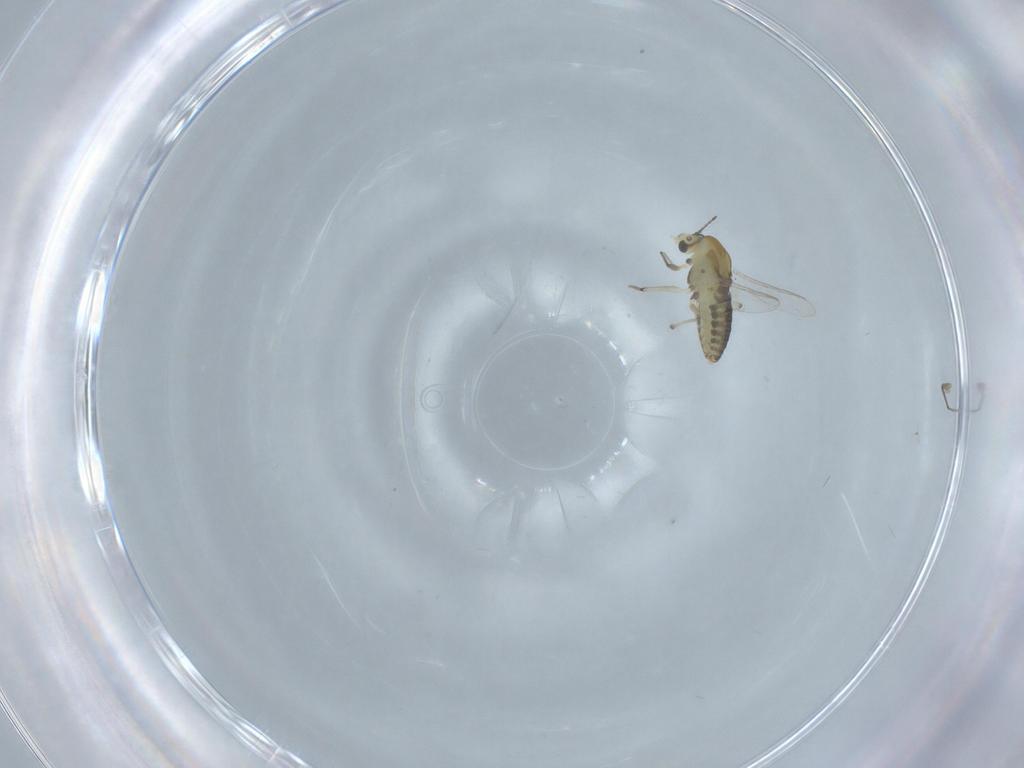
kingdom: Animalia
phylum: Arthropoda
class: Insecta
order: Diptera
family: Chironomidae
